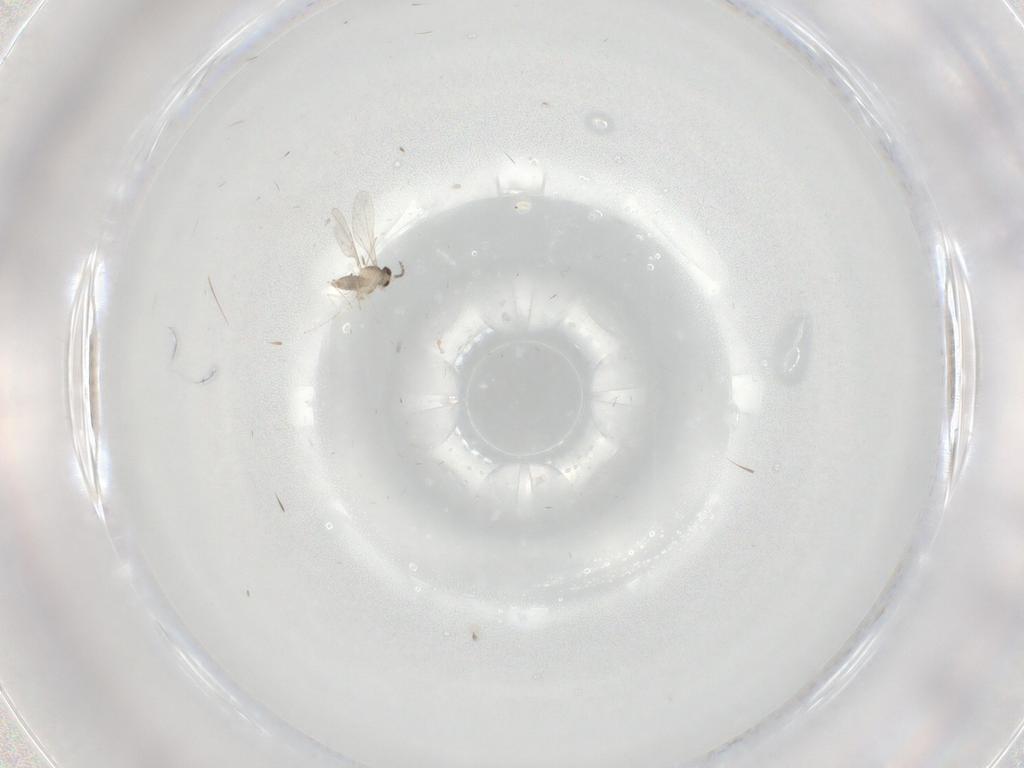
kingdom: Animalia
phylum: Arthropoda
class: Insecta
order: Diptera
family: Cecidomyiidae
